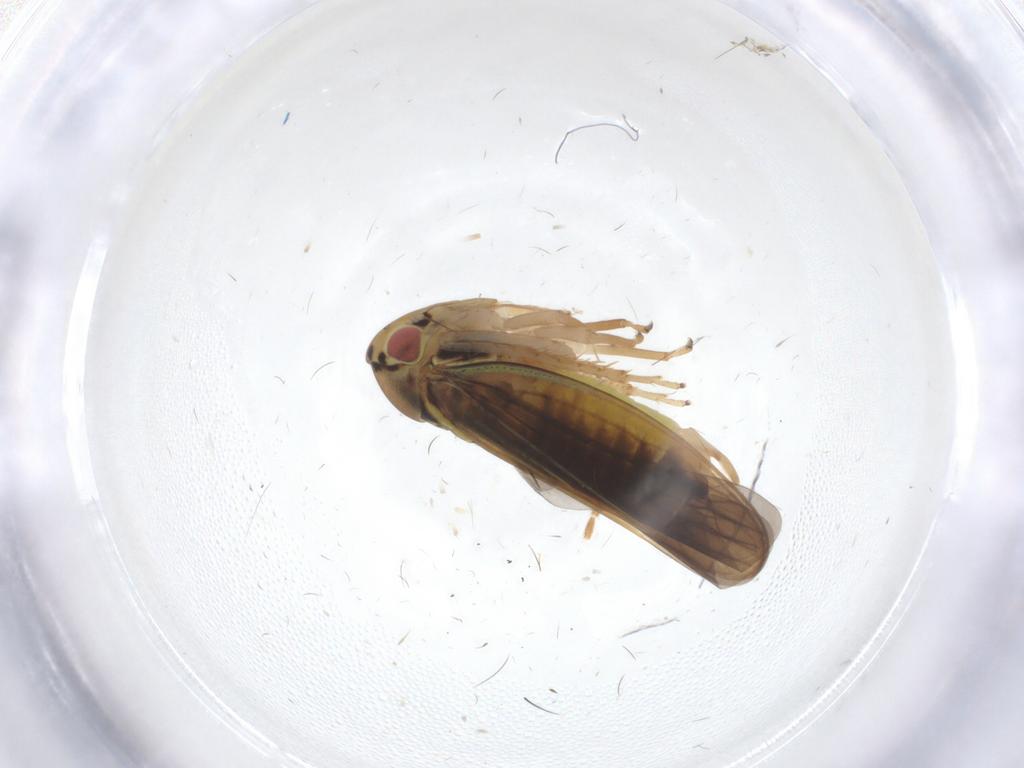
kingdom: Animalia
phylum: Arthropoda
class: Insecta
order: Hemiptera
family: Cicadellidae
